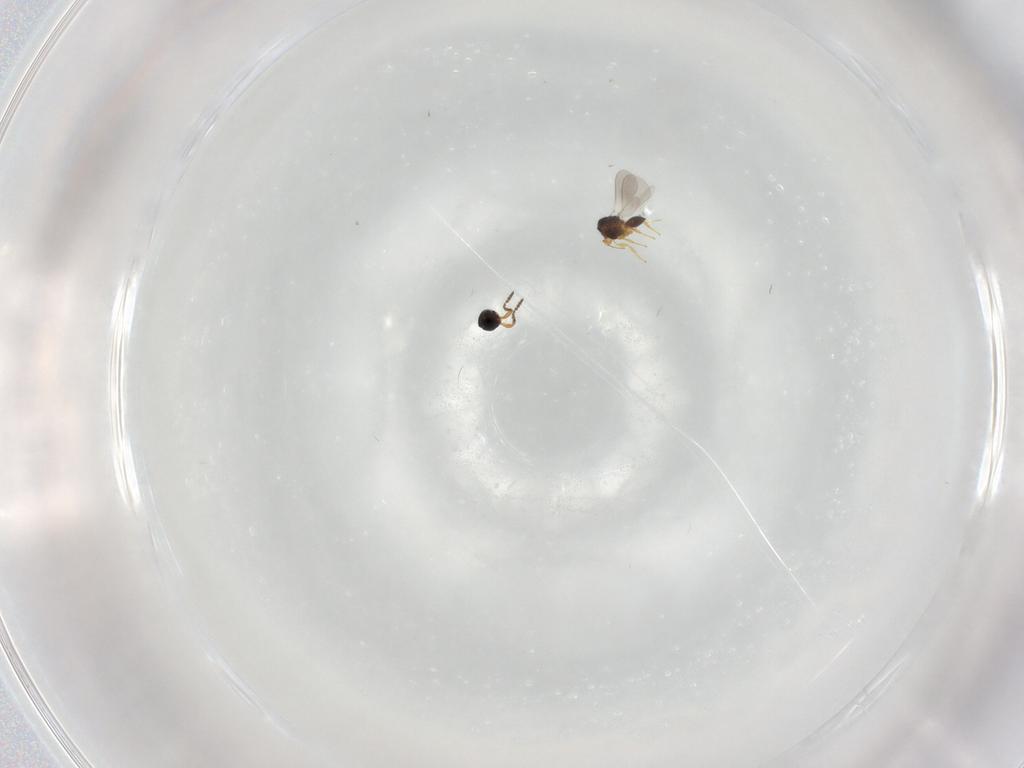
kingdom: Animalia
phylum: Arthropoda
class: Insecta
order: Hymenoptera
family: Platygastridae
